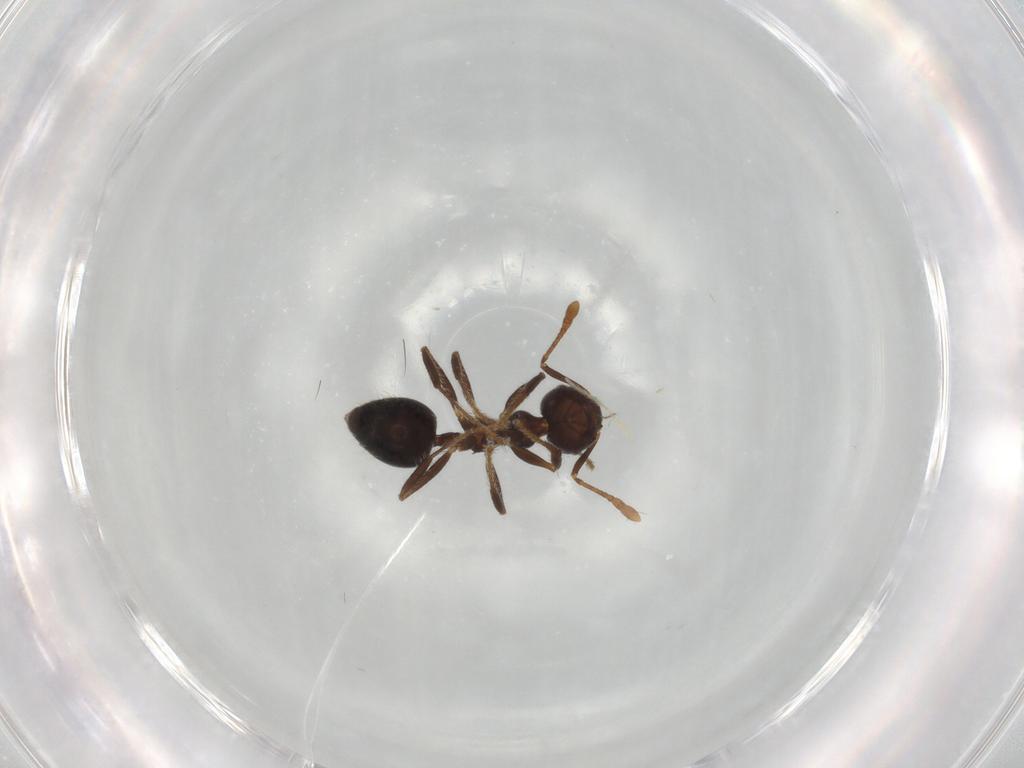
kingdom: Animalia
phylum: Arthropoda
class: Insecta
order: Hymenoptera
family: Formicidae
